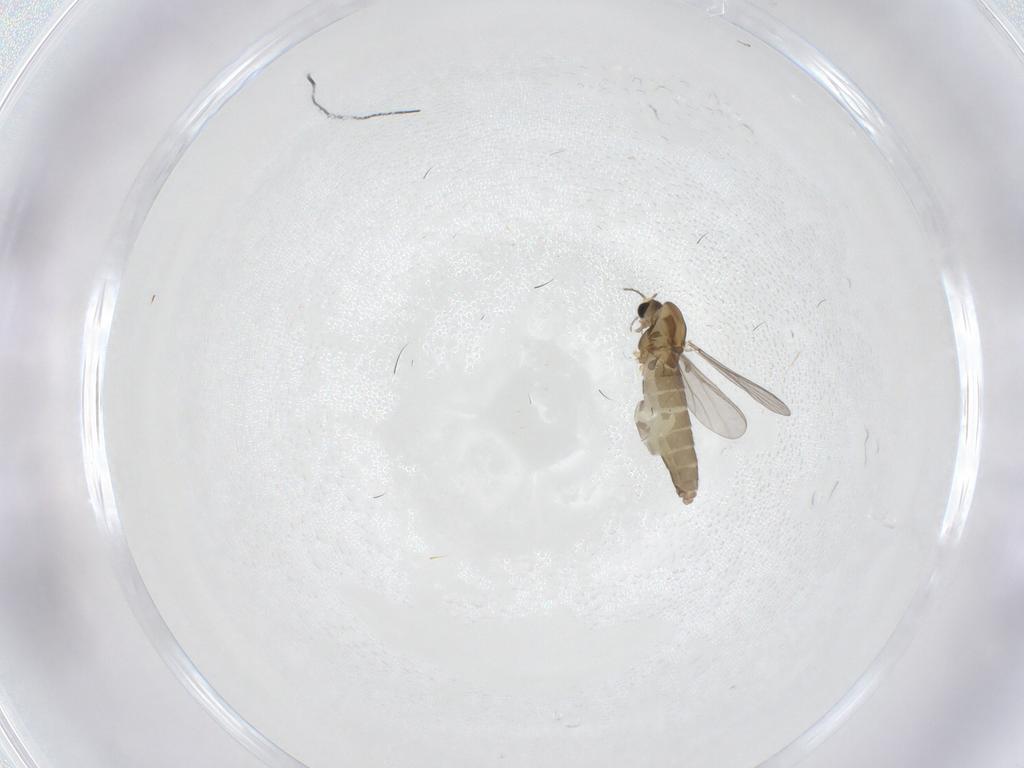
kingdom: Animalia
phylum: Arthropoda
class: Insecta
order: Diptera
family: Chironomidae
